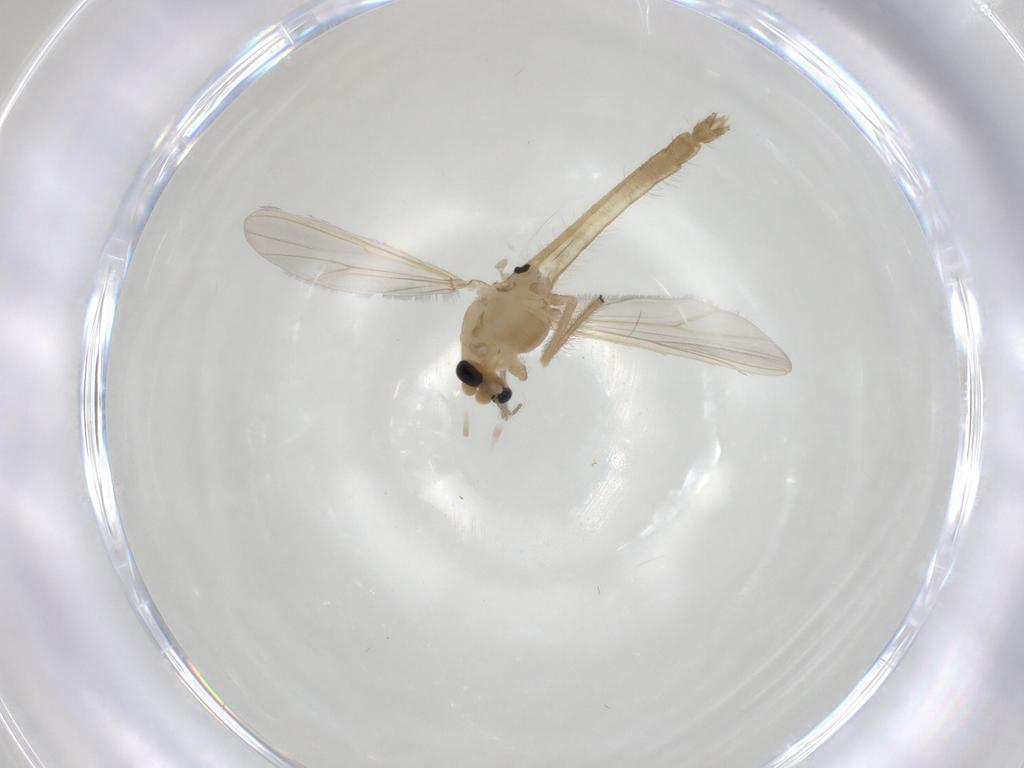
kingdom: Animalia
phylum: Arthropoda
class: Insecta
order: Diptera
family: Chironomidae
